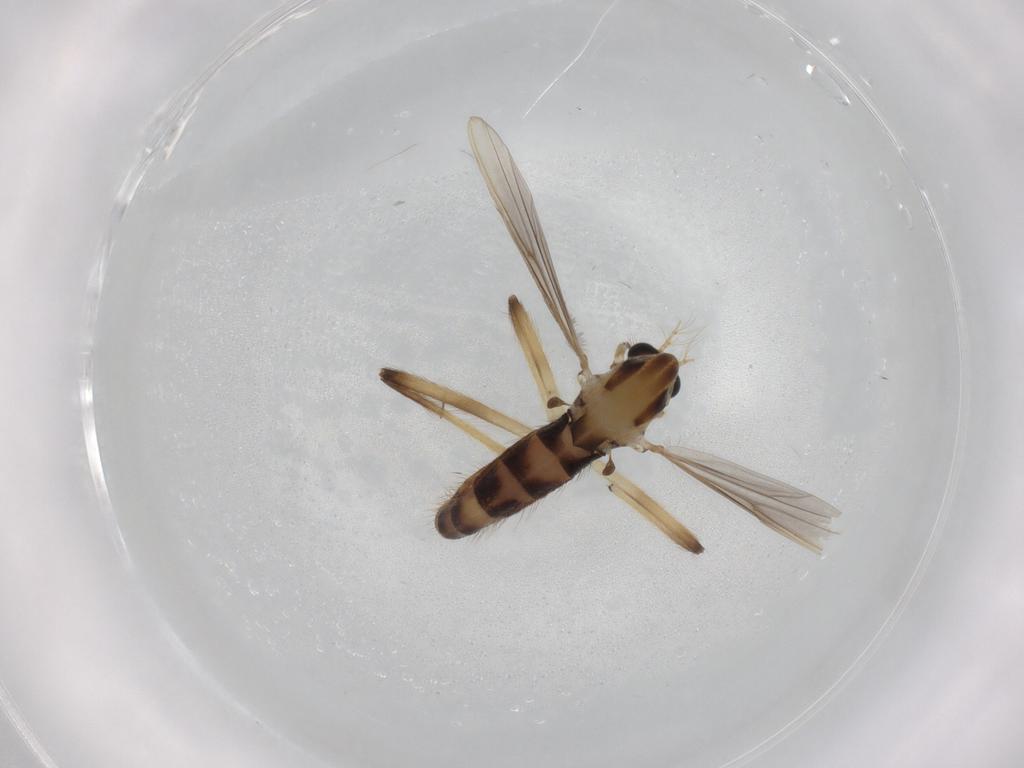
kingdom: Animalia
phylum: Arthropoda
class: Insecta
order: Diptera
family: Chironomidae
